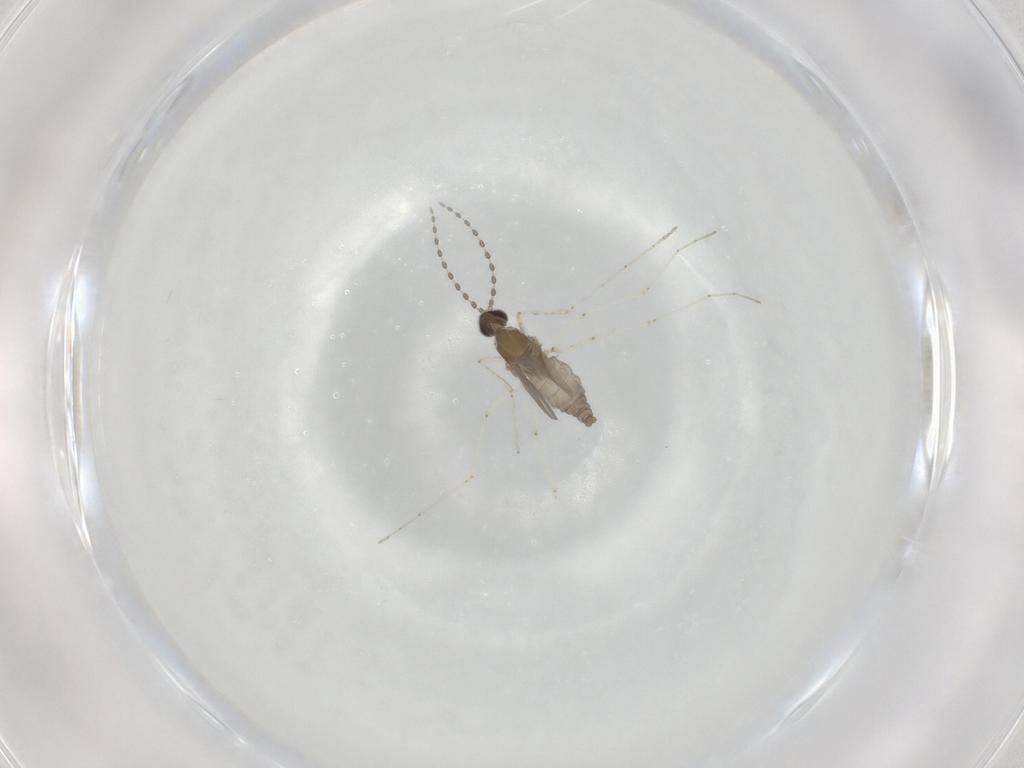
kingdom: Animalia
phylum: Arthropoda
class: Insecta
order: Diptera
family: Cecidomyiidae
